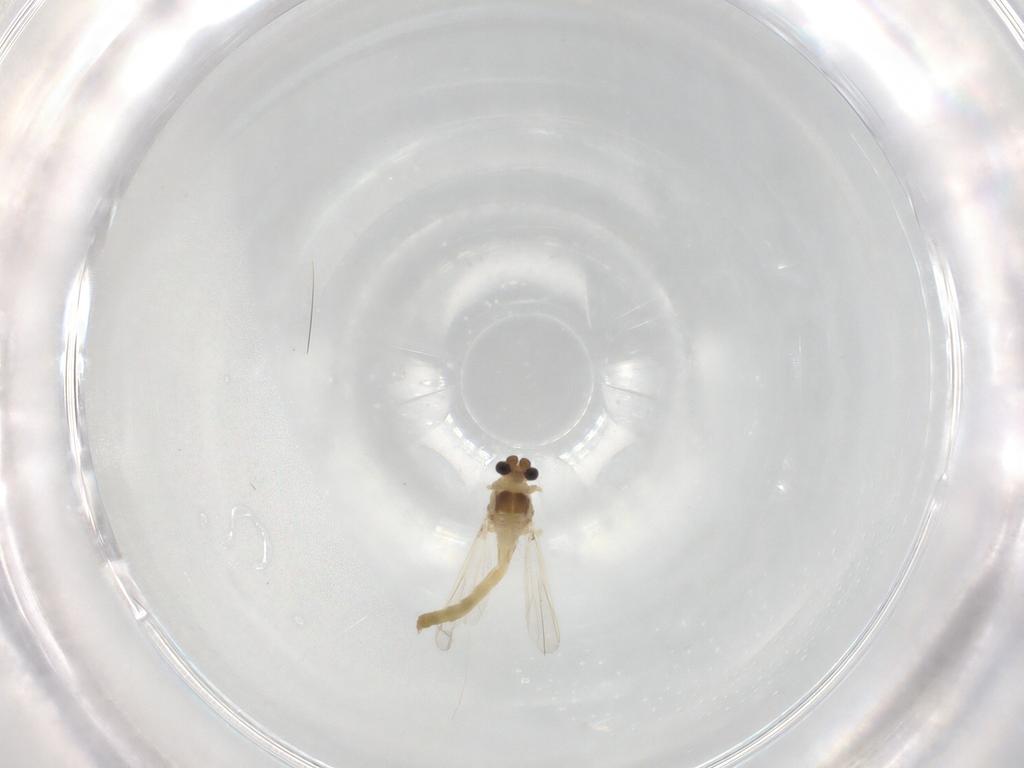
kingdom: Animalia
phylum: Arthropoda
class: Insecta
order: Diptera
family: Chironomidae
